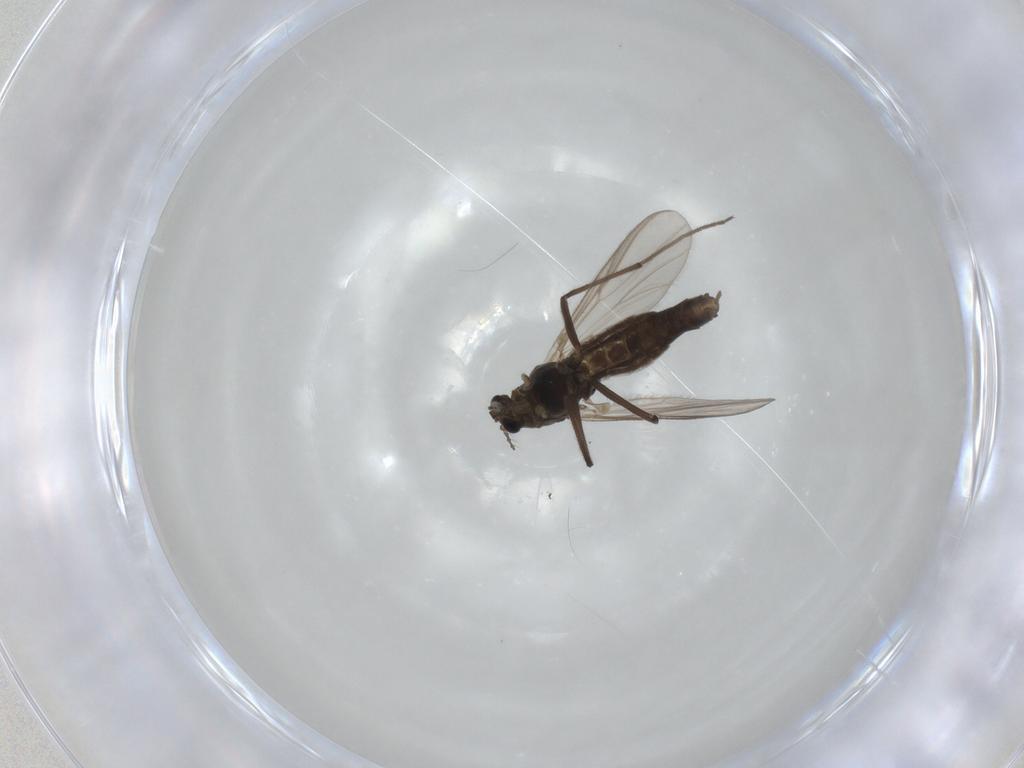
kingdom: Animalia
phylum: Arthropoda
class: Insecta
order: Diptera
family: Chironomidae
